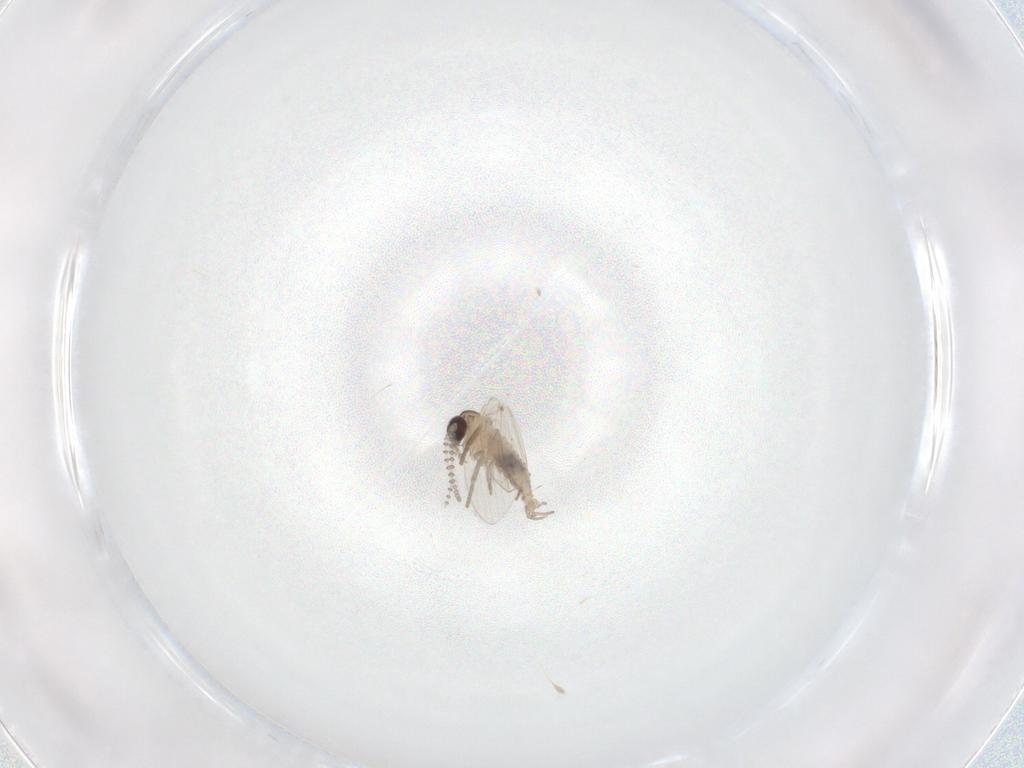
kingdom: Animalia
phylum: Arthropoda
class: Insecta
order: Diptera
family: Psychodidae
